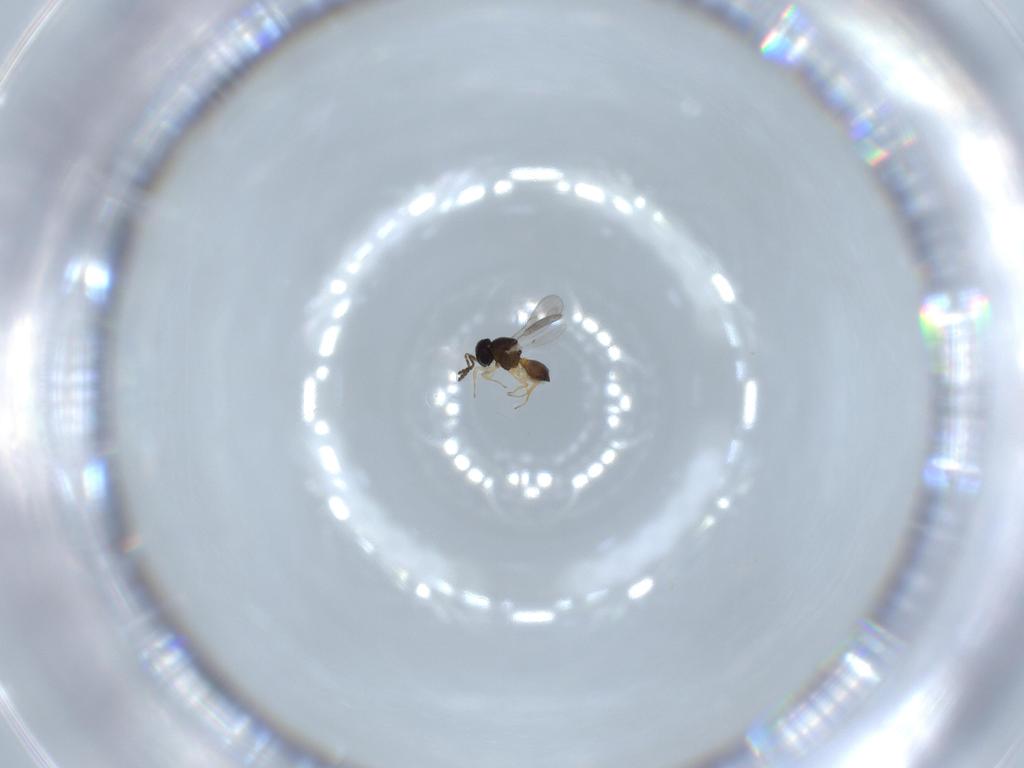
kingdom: Animalia
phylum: Arthropoda
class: Insecta
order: Hymenoptera
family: Scelionidae
